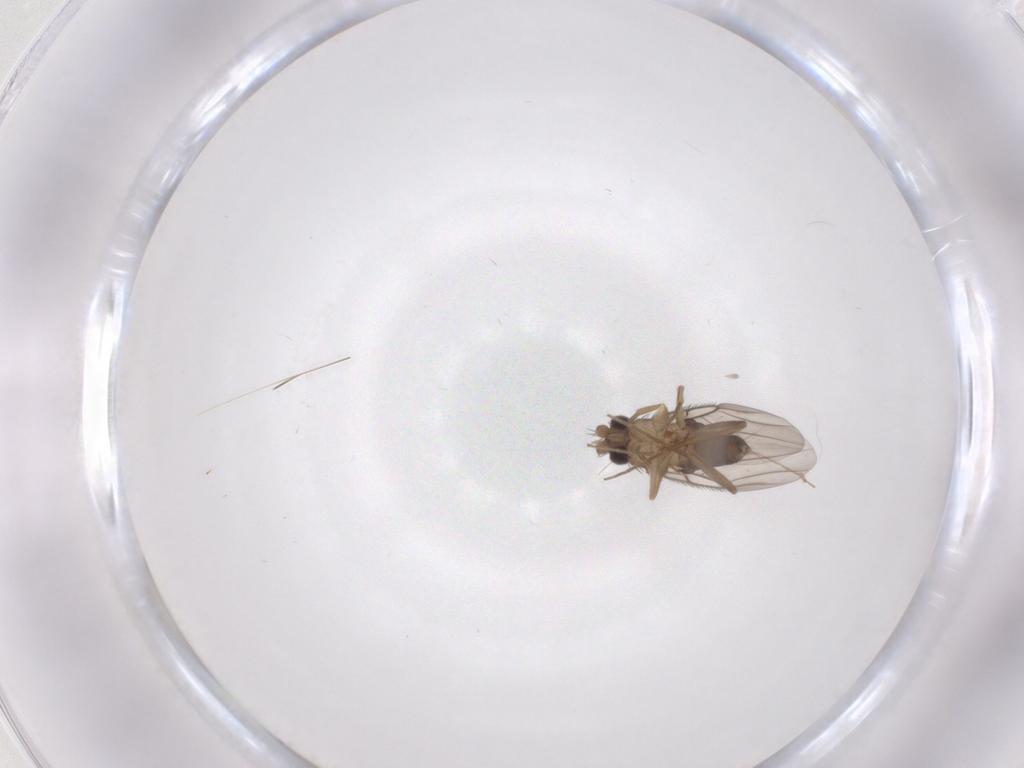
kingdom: Animalia
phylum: Arthropoda
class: Insecta
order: Diptera
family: Phoridae
